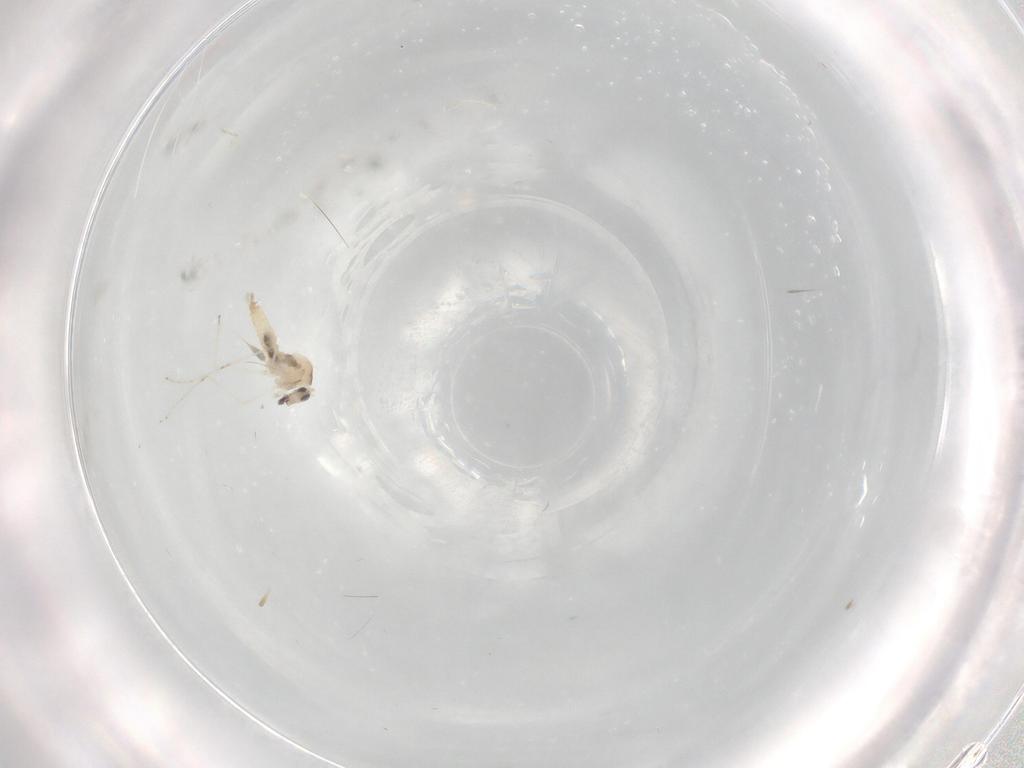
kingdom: Animalia
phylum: Arthropoda
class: Insecta
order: Diptera
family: Cecidomyiidae
